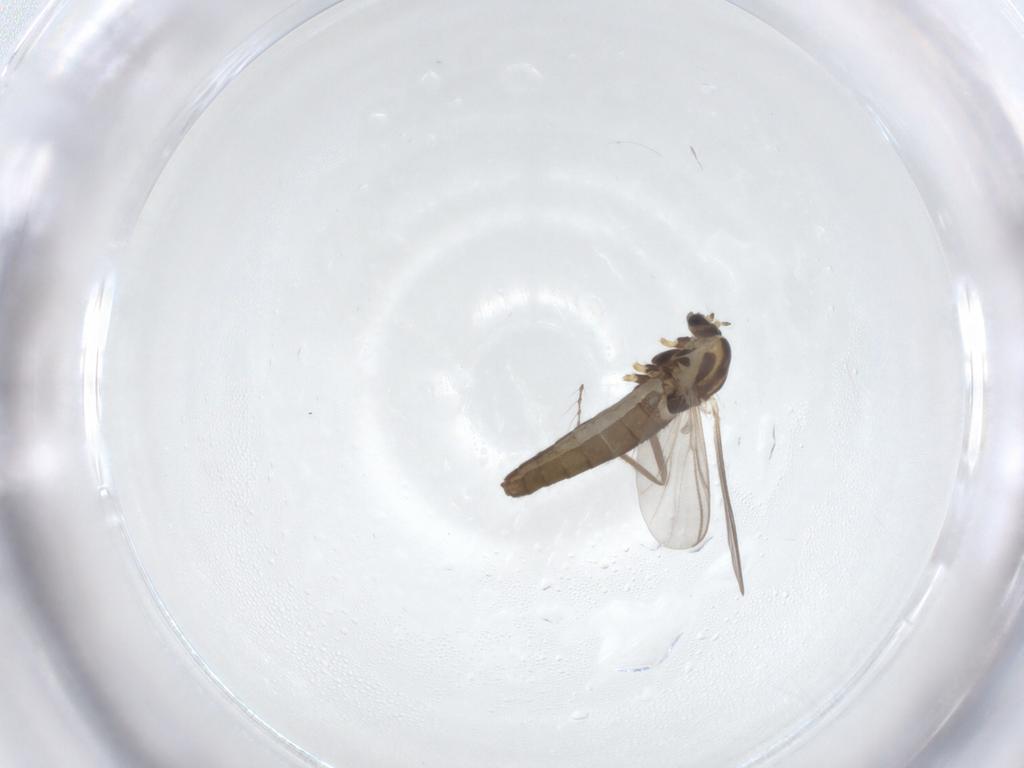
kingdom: Animalia
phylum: Arthropoda
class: Insecta
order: Diptera
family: Chironomidae
